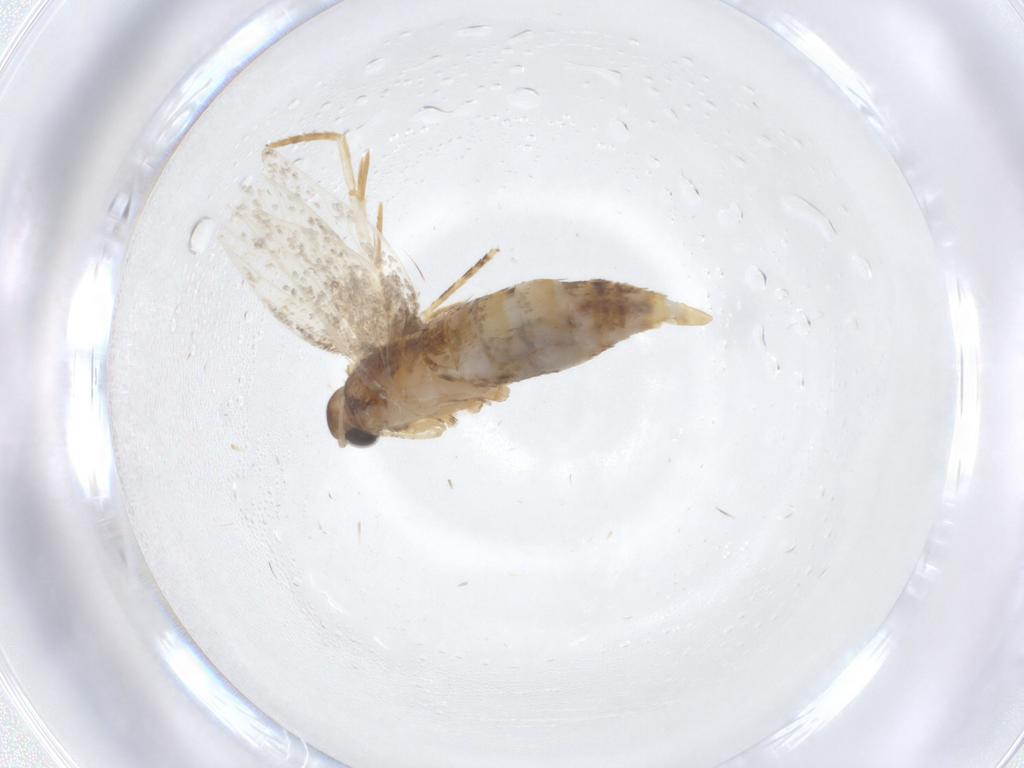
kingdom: Animalia
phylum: Arthropoda
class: Insecta
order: Lepidoptera
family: Oecophoridae
